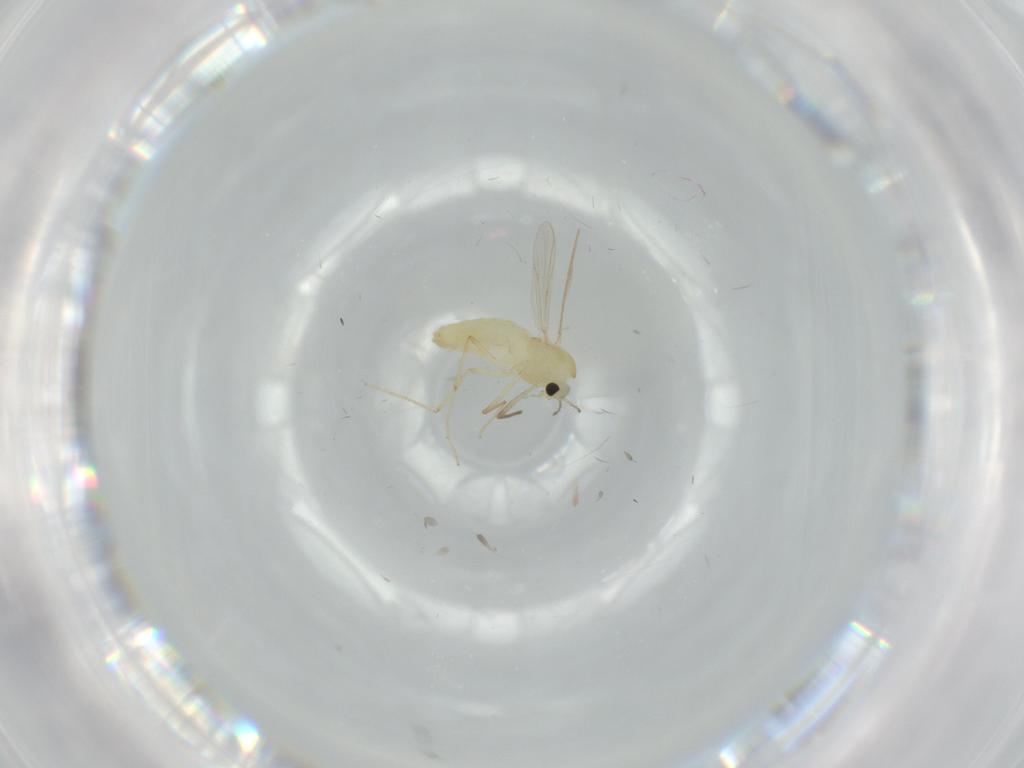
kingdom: Animalia
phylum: Arthropoda
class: Insecta
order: Diptera
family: Chironomidae
